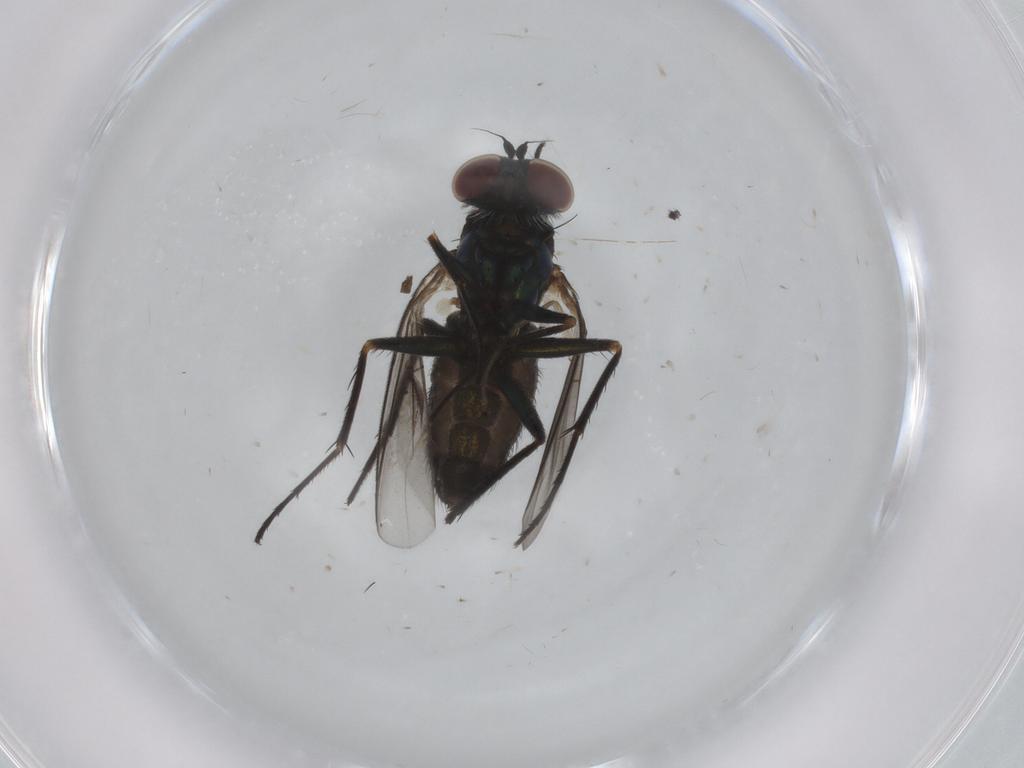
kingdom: Animalia
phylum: Arthropoda
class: Insecta
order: Diptera
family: Dolichopodidae
